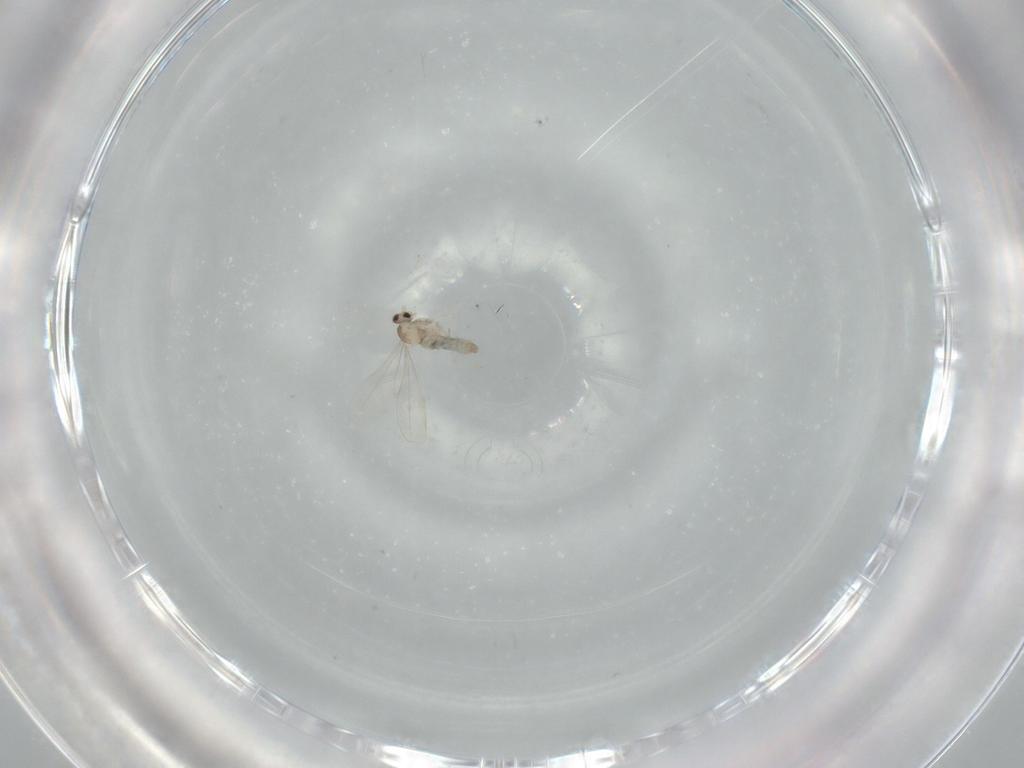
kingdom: Animalia
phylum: Arthropoda
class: Insecta
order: Diptera
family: Cecidomyiidae
